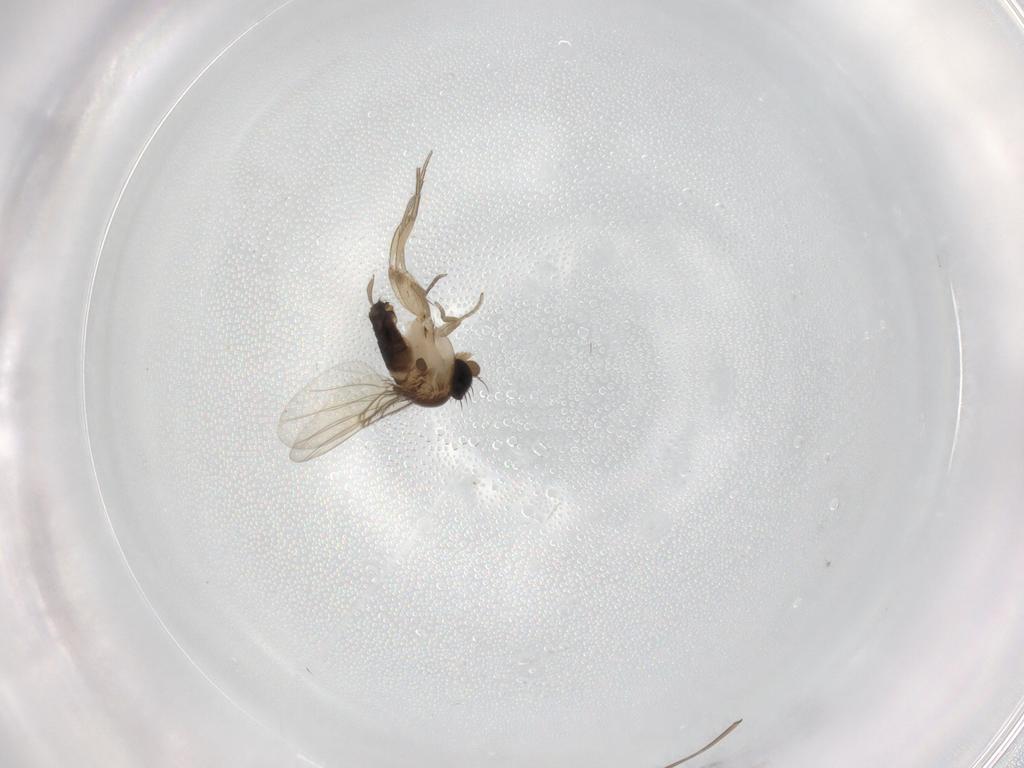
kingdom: Animalia
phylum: Arthropoda
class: Insecta
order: Diptera
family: Limoniidae
